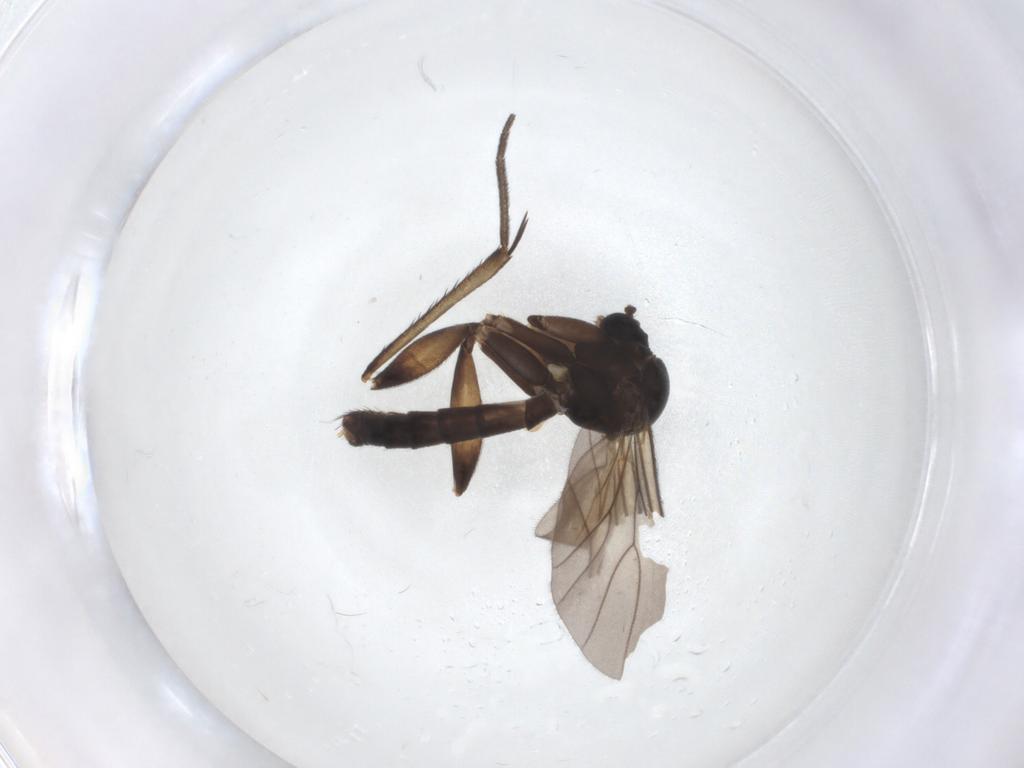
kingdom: Animalia
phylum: Arthropoda
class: Insecta
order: Diptera
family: Mycetophilidae
